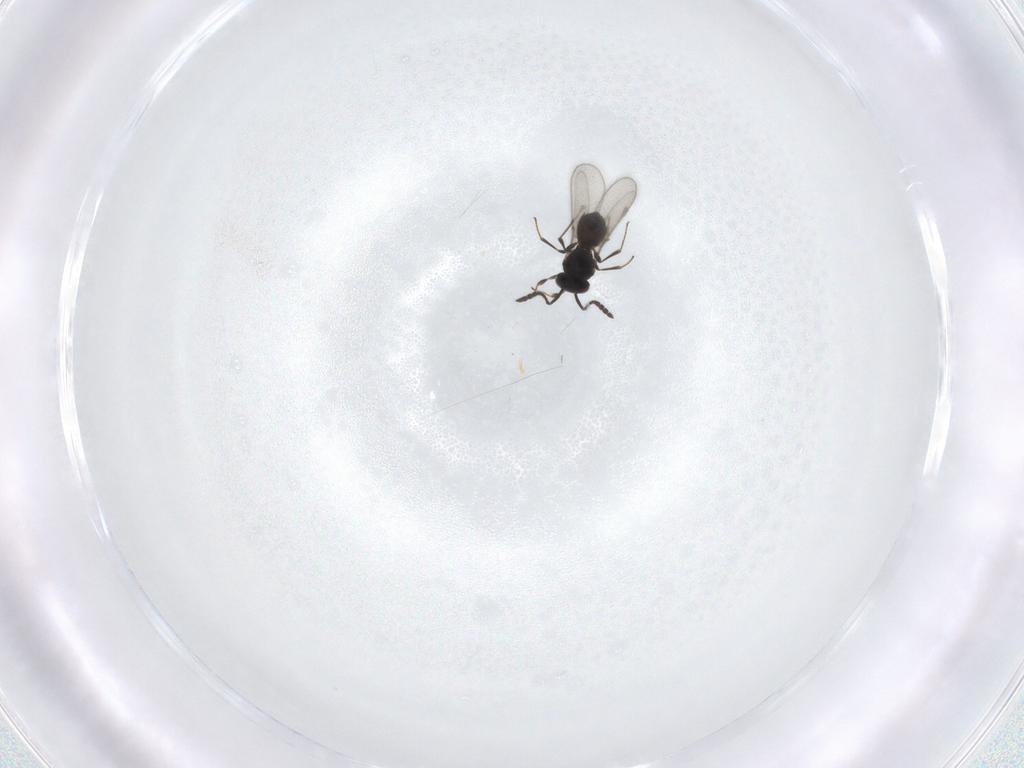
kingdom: Animalia
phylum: Arthropoda
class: Insecta
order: Hymenoptera
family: Scelionidae
